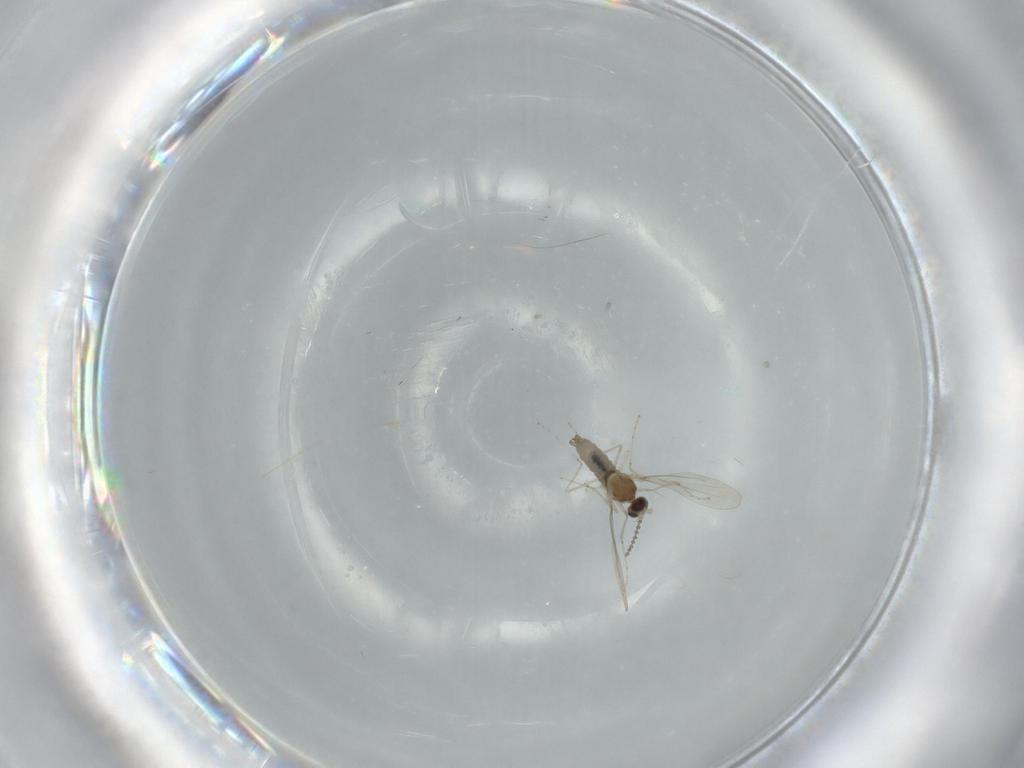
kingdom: Animalia
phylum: Arthropoda
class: Insecta
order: Diptera
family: Cecidomyiidae
